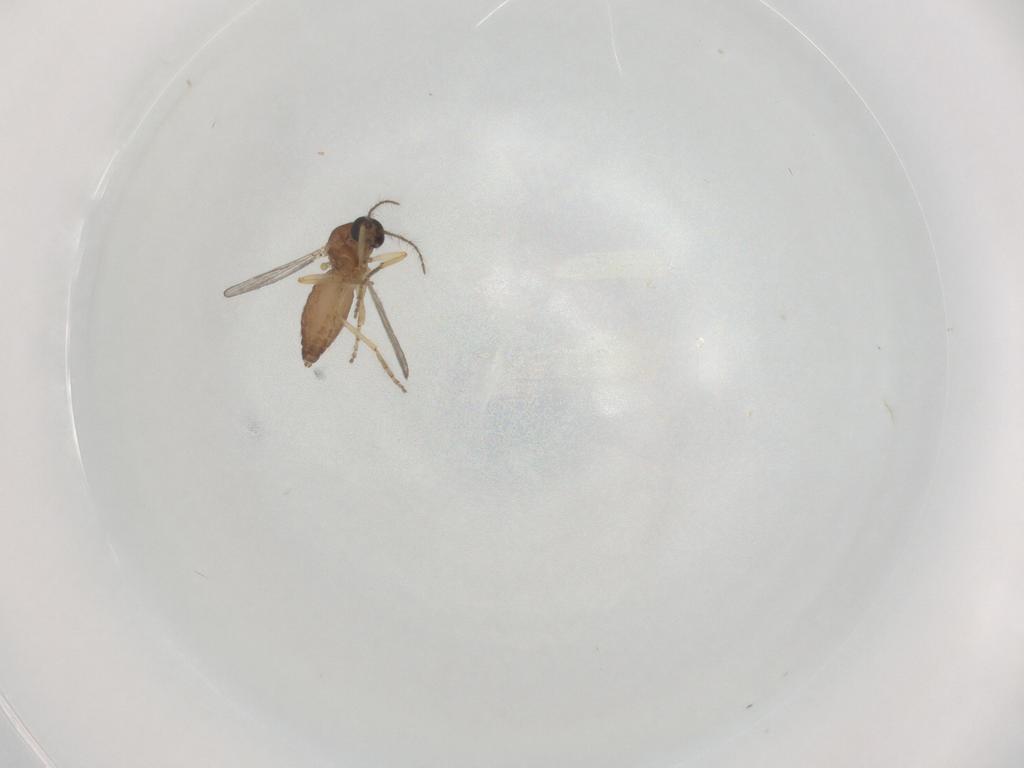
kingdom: Animalia
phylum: Arthropoda
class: Insecta
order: Diptera
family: Ceratopogonidae
